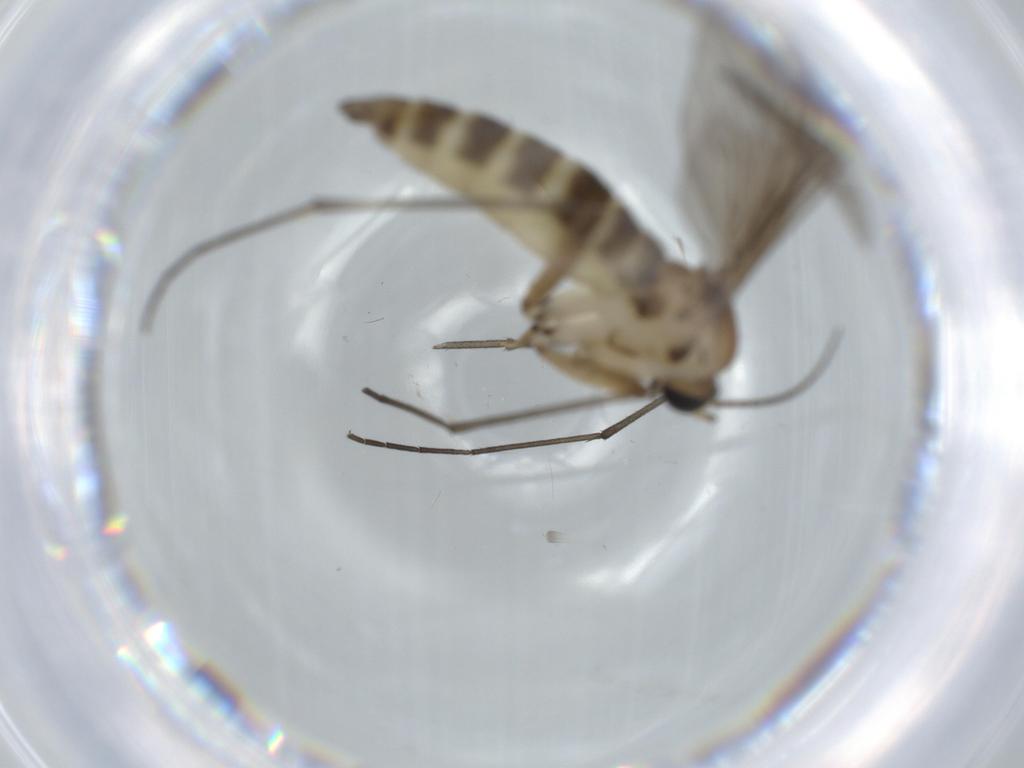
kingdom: Animalia
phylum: Arthropoda
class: Insecta
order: Diptera
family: Sciaridae
